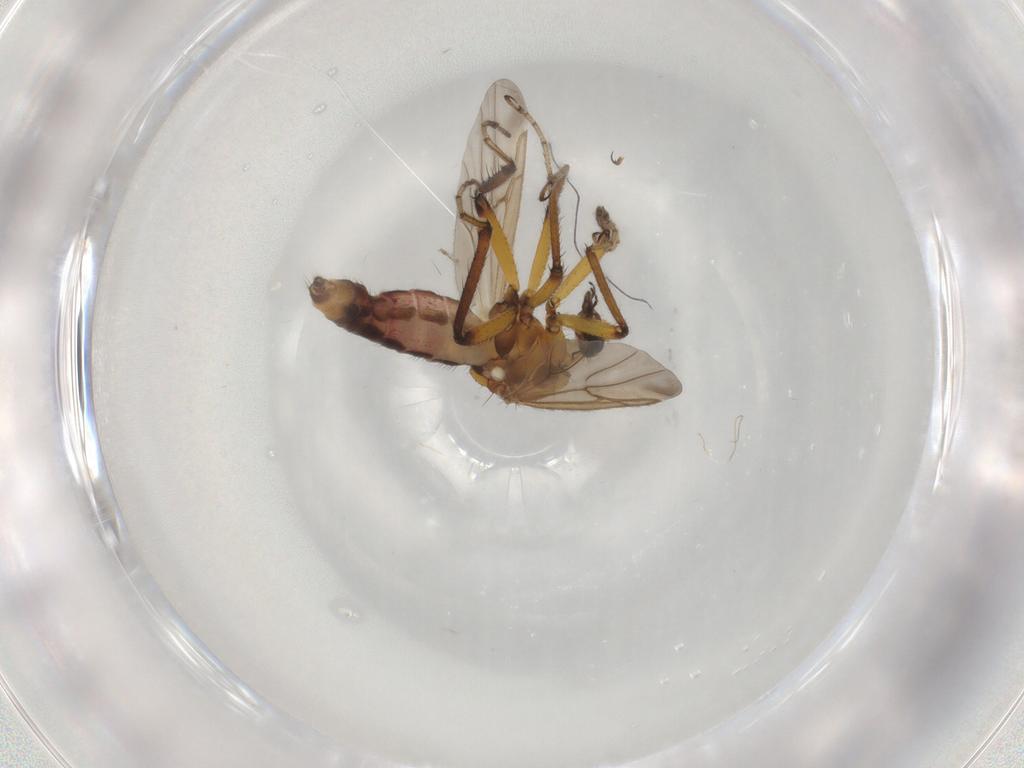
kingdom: Animalia
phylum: Arthropoda
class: Insecta
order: Diptera
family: Ceratopogonidae
